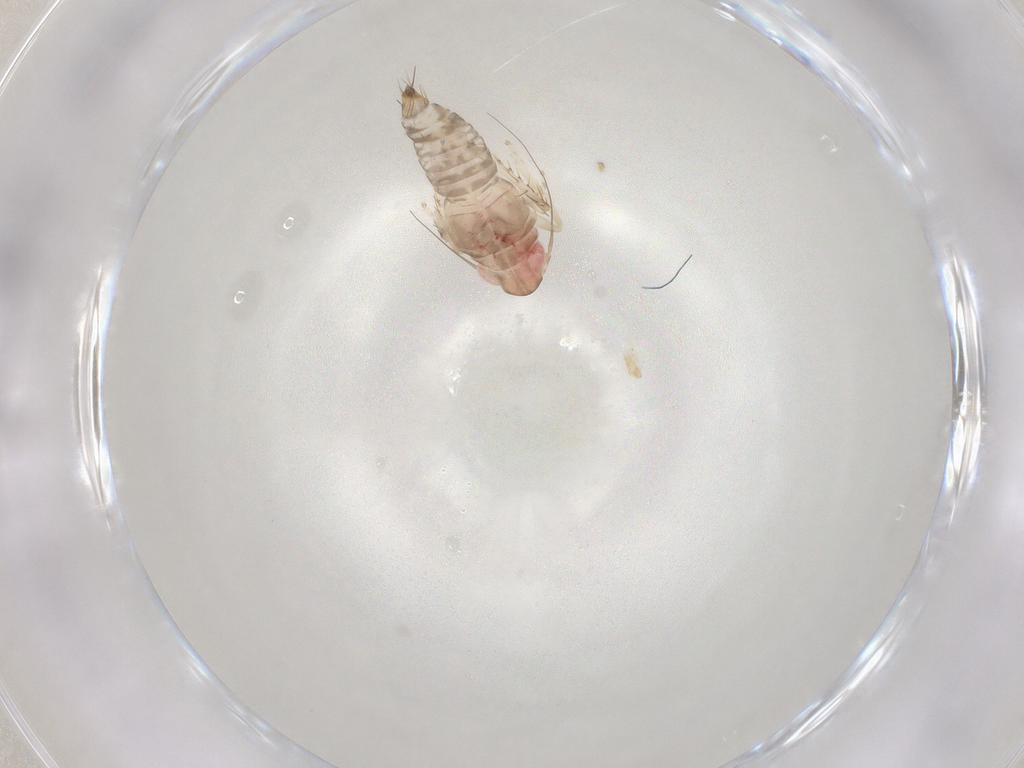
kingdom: Animalia
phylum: Arthropoda
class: Insecta
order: Hemiptera
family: Cicadellidae
